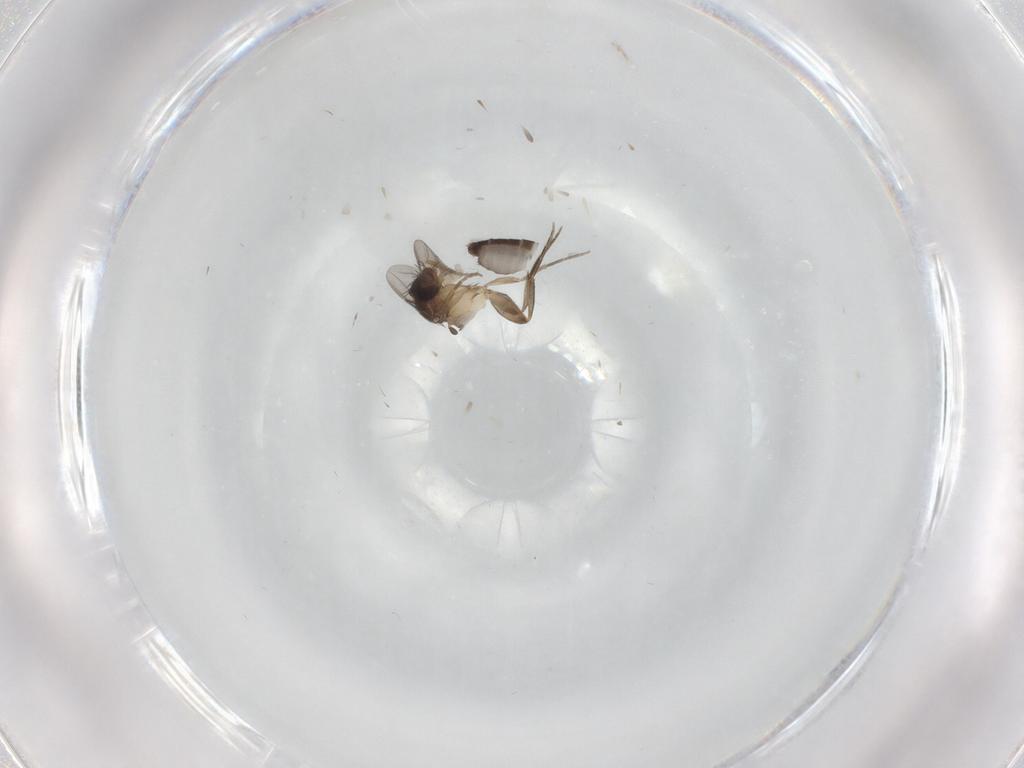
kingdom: Animalia
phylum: Arthropoda
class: Insecta
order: Diptera
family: Phoridae
